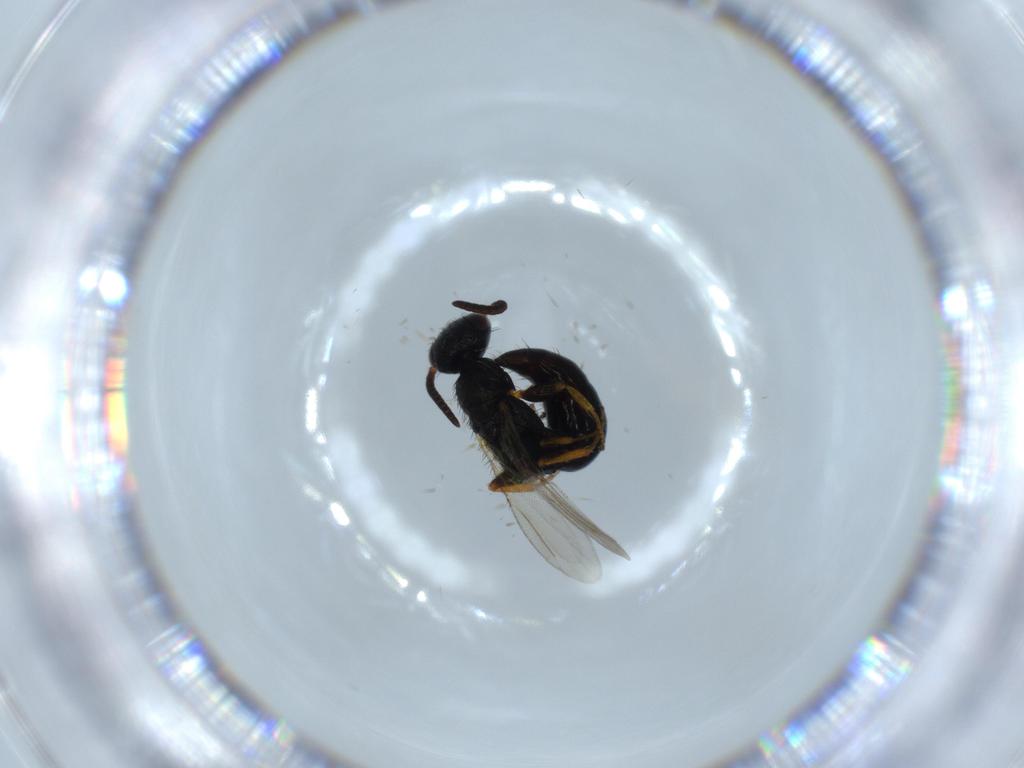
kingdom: Animalia
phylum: Arthropoda
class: Insecta
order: Hymenoptera
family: Bethylidae
